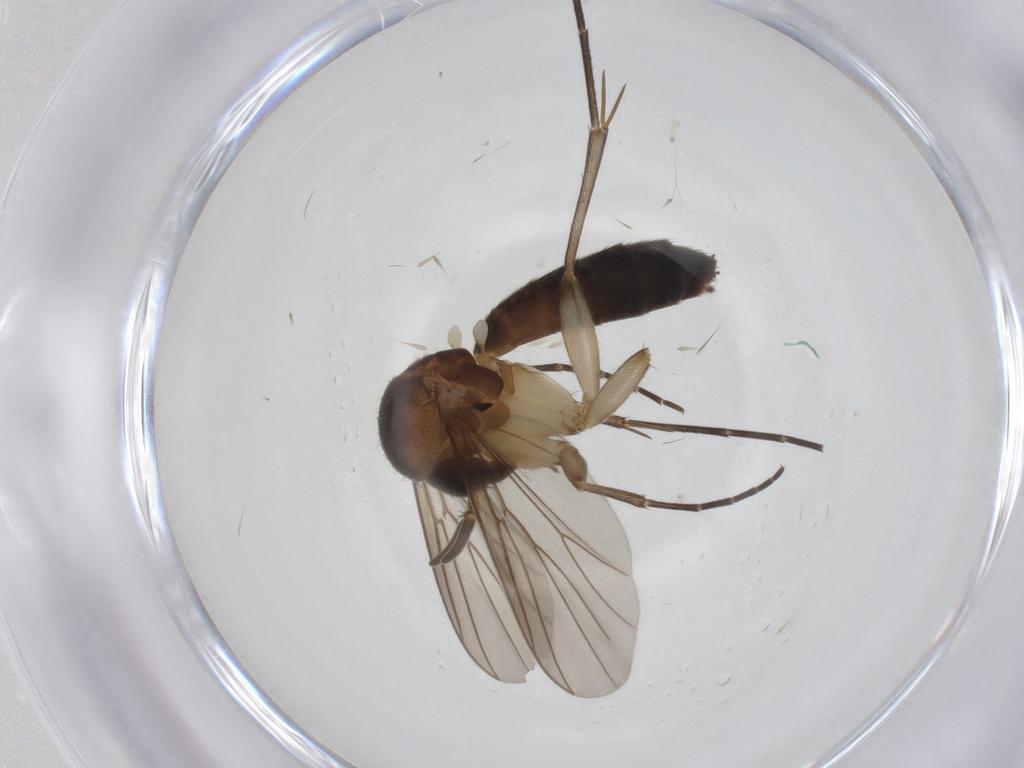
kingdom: Animalia
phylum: Arthropoda
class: Insecta
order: Diptera
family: Mycetophilidae
